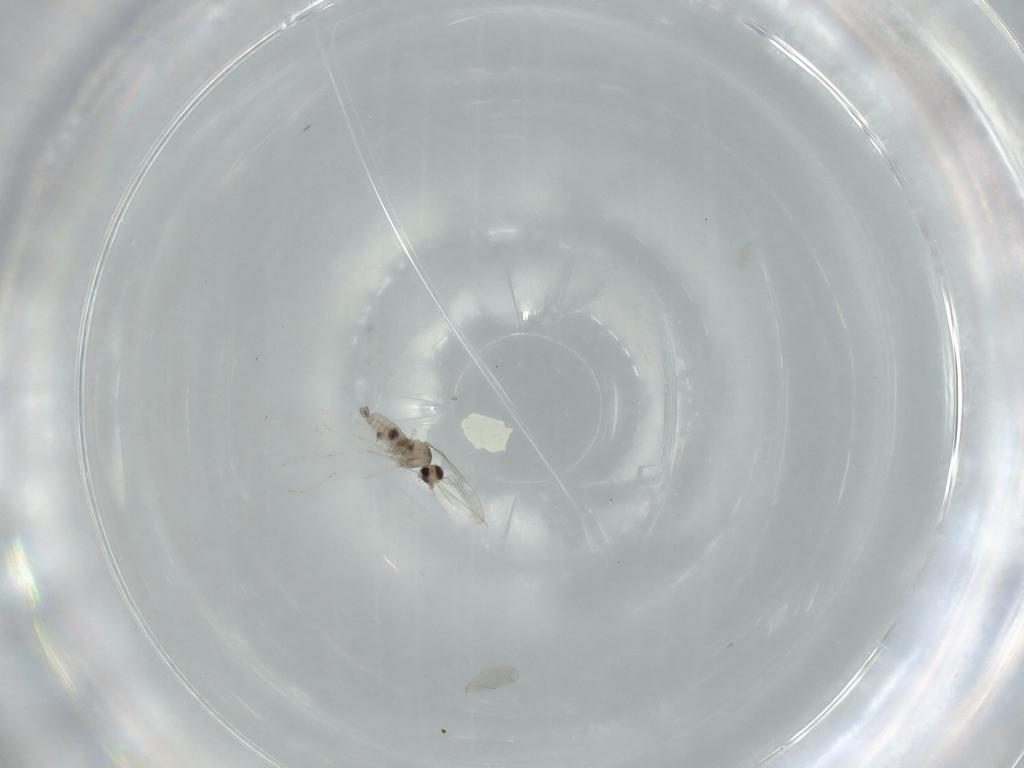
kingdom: Animalia
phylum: Arthropoda
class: Insecta
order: Diptera
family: Cecidomyiidae
